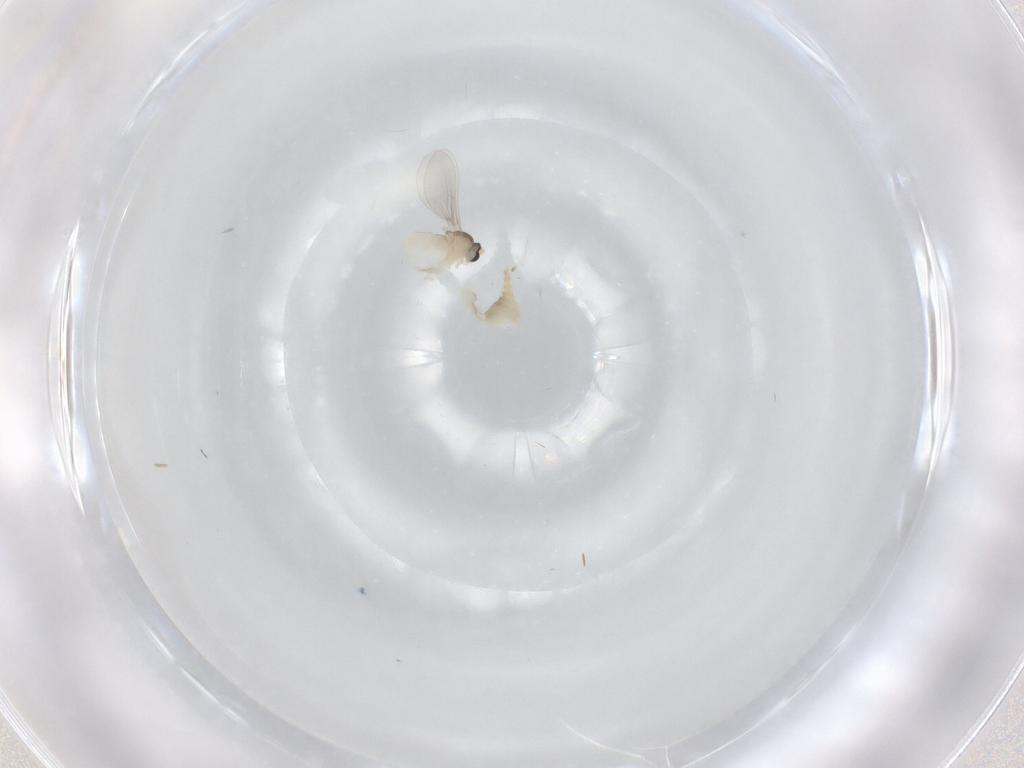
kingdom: Animalia
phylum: Arthropoda
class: Insecta
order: Diptera
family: Cecidomyiidae
